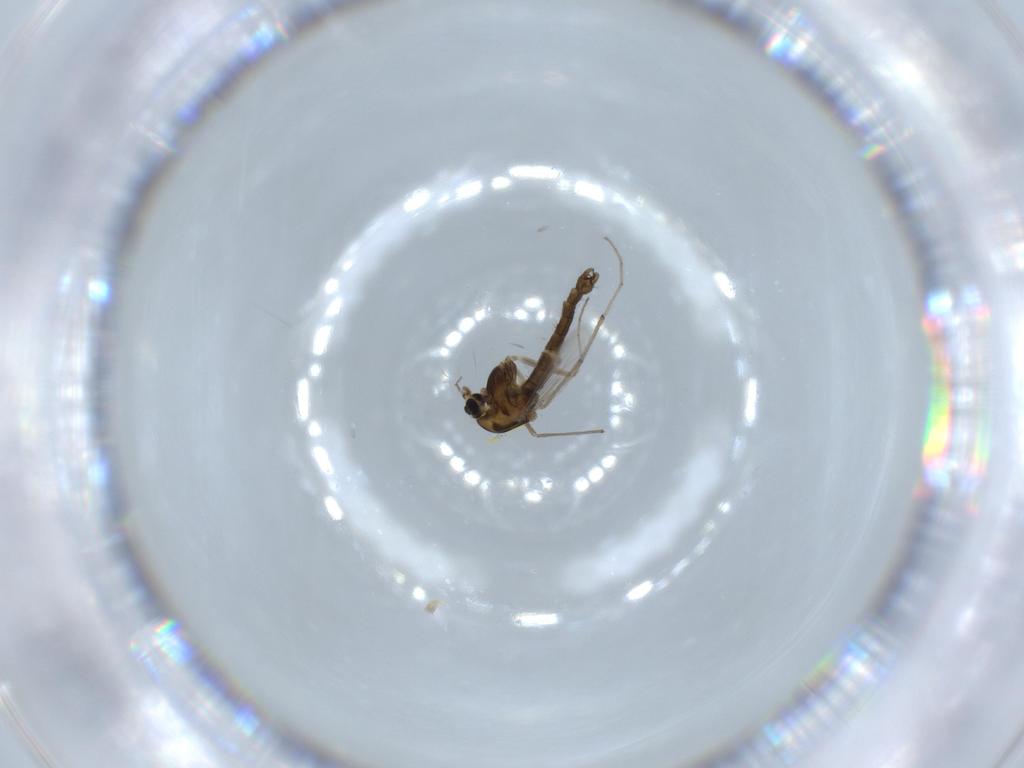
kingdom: Animalia
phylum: Arthropoda
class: Insecta
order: Diptera
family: Chironomidae
